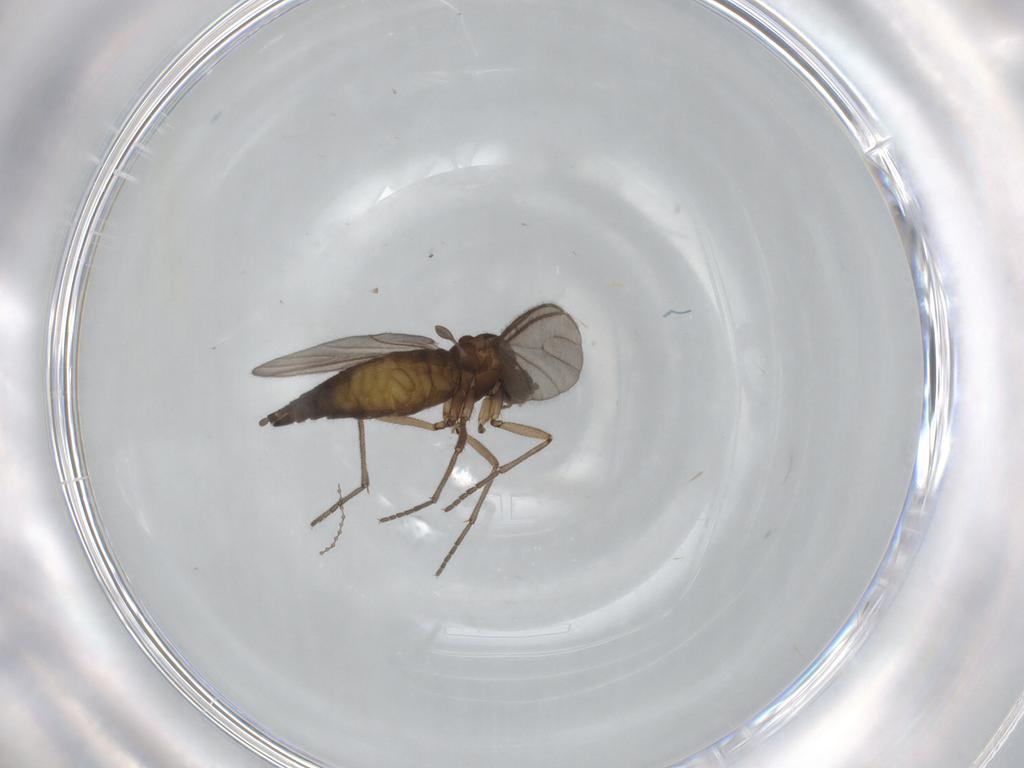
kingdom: Animalia
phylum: Arthropoda
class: Insecta
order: Diptera
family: Sciaridae
